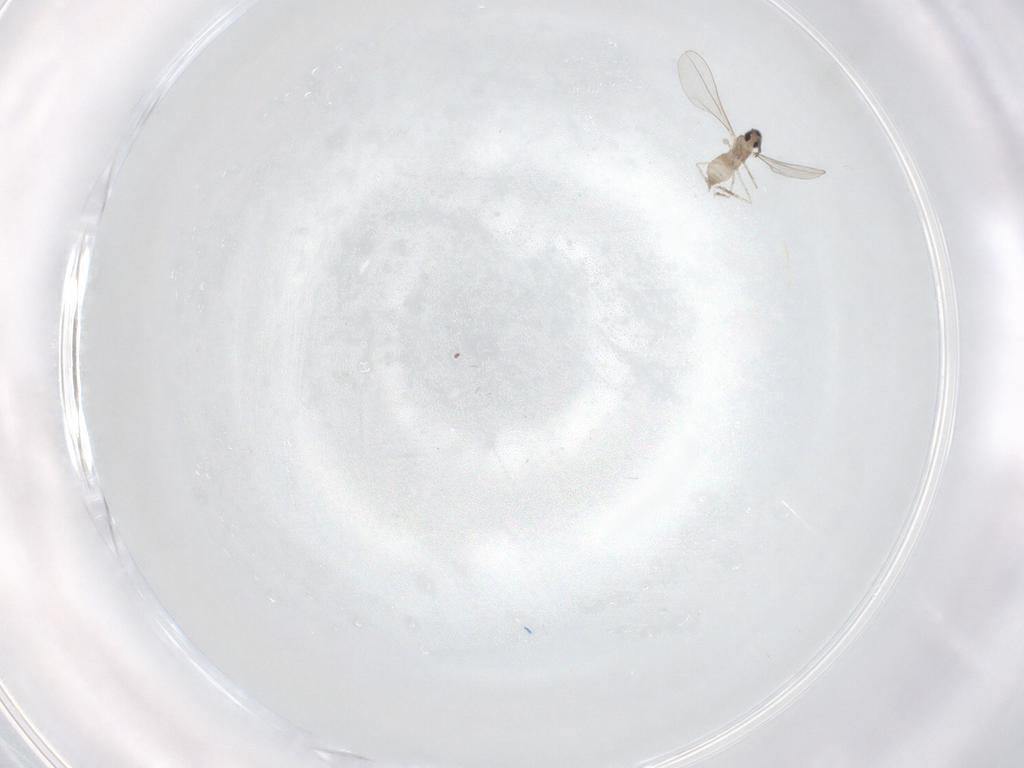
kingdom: Animalia
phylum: Arthropoda
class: Insecta
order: Diptera
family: Cecidomyiidae
